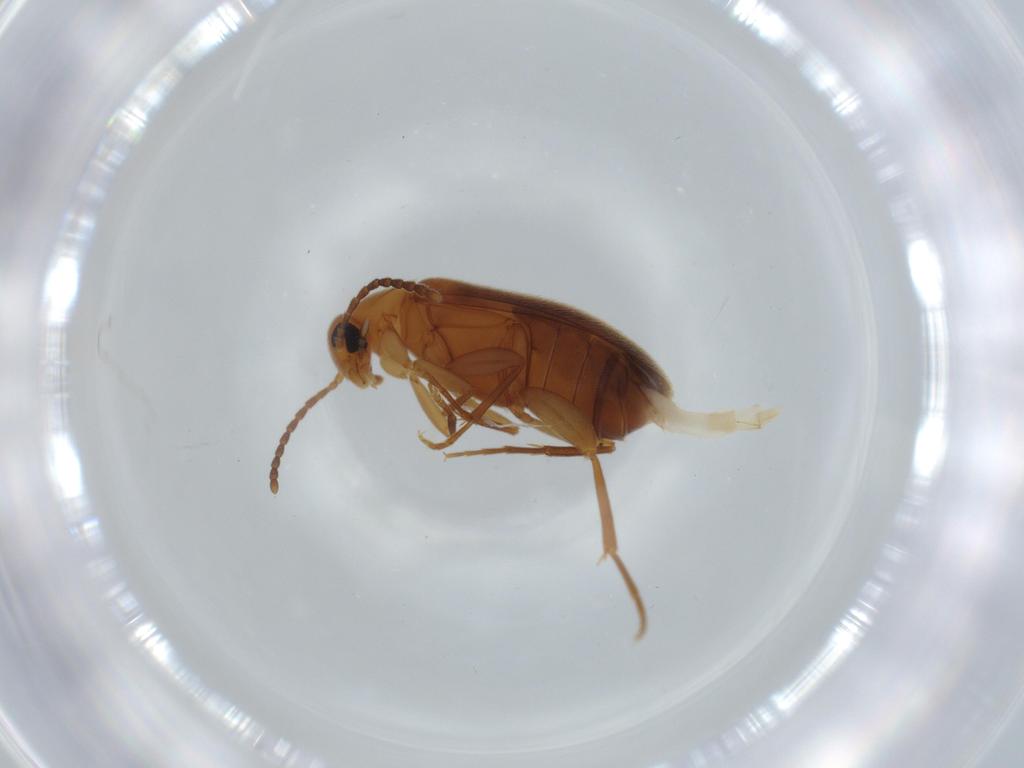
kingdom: Animalia
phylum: Arthropoda
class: Insecta
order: Coleoptera
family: Scraptiidae
